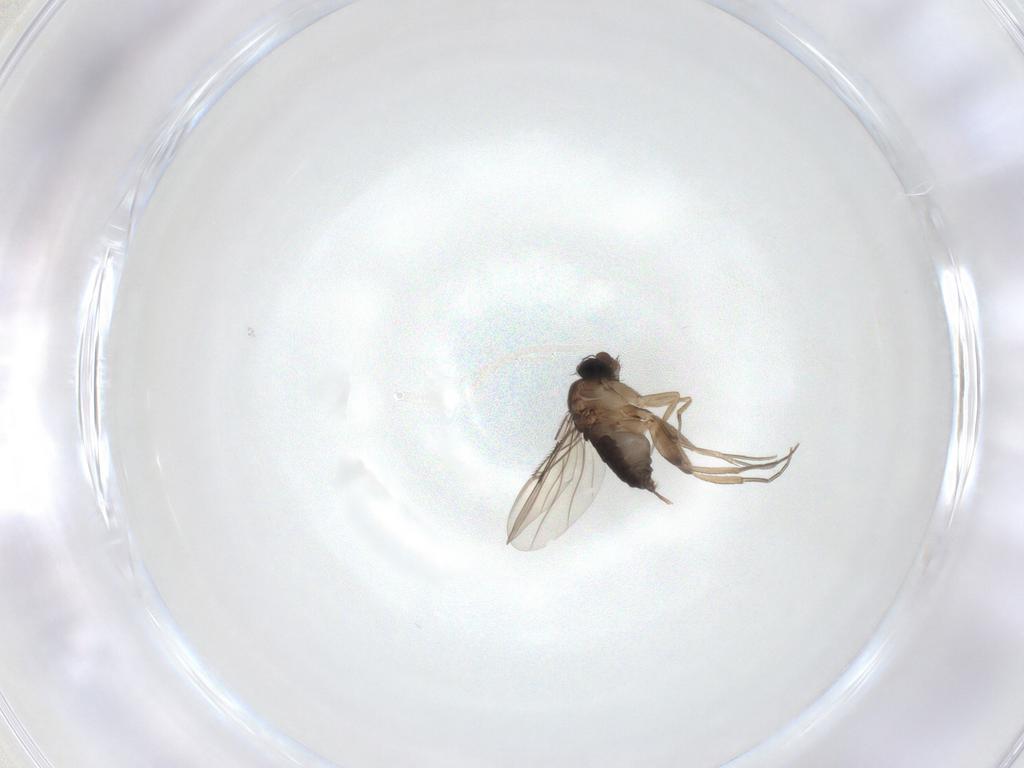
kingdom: Animalia
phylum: Arthropoda
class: Insecta
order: Diptera
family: Phoridae
